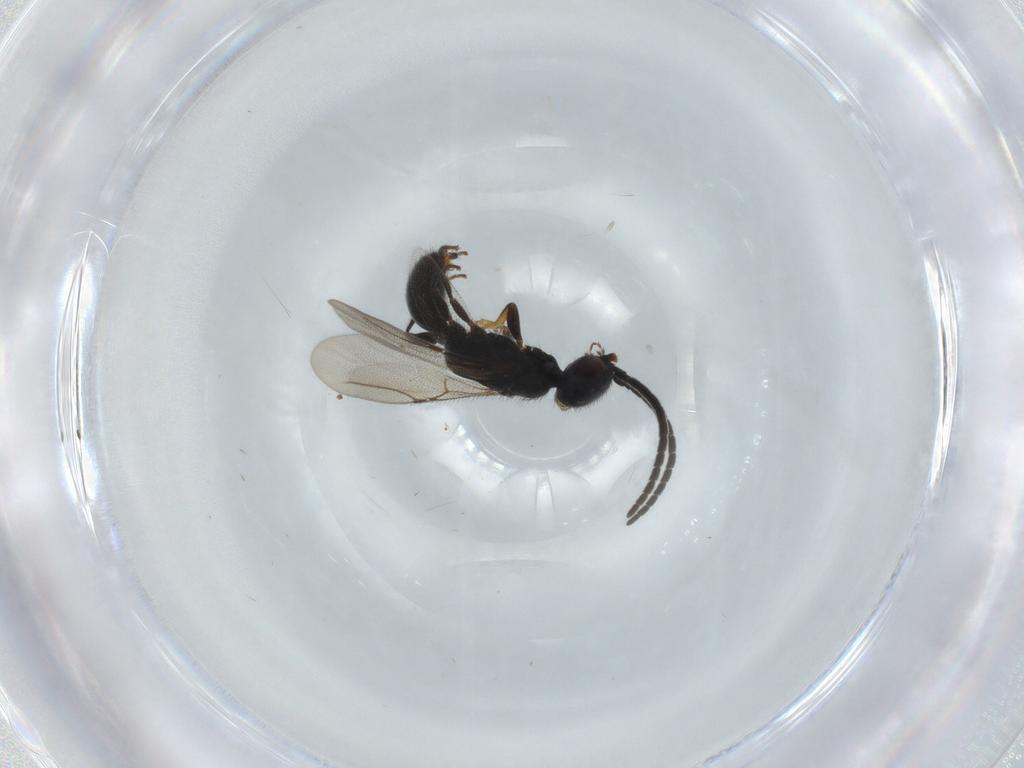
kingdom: Animalia
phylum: Arthropoda
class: Insecta
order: Hymenoptera
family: Bethylidae
